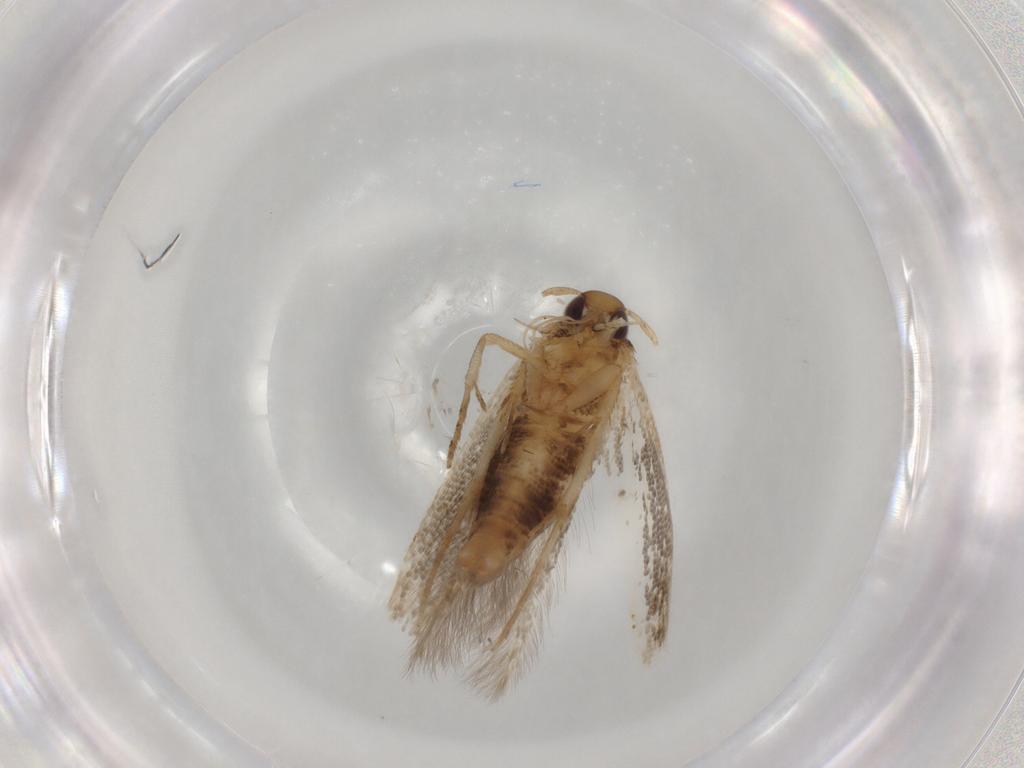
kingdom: Animalia
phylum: Arthropoda
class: Insecta
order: Lepidoptera
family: Cosmopterigidae
